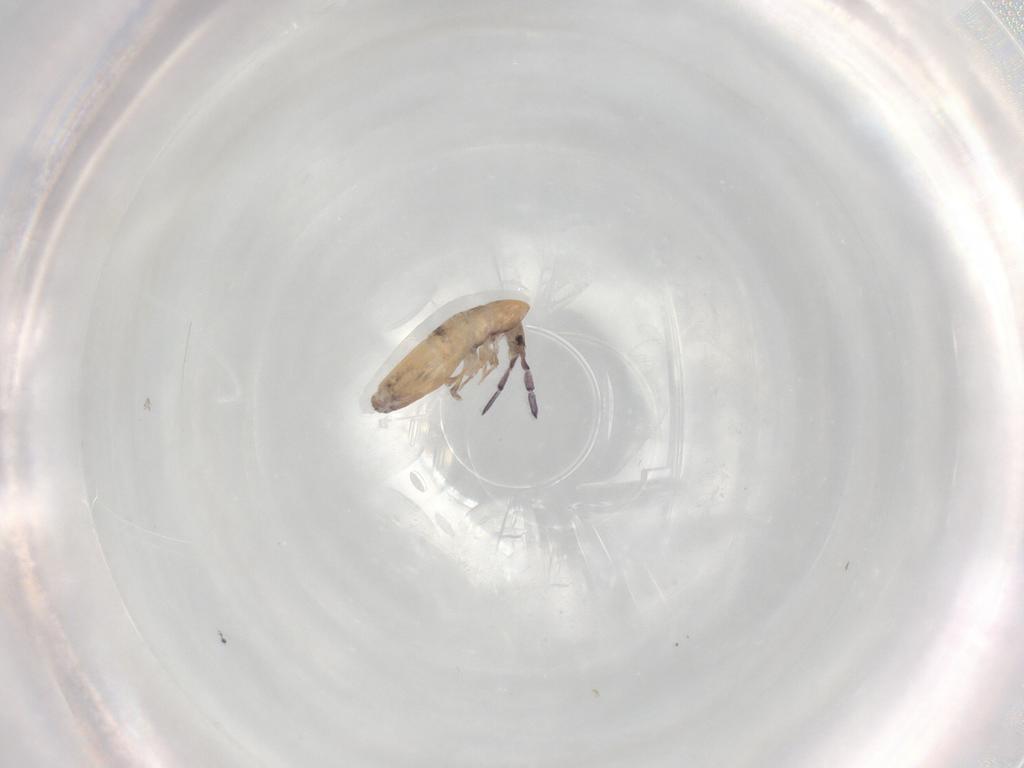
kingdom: Animalia
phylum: Arthropoda
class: Collembola
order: Entomobryomorpha
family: Entomobryidae
